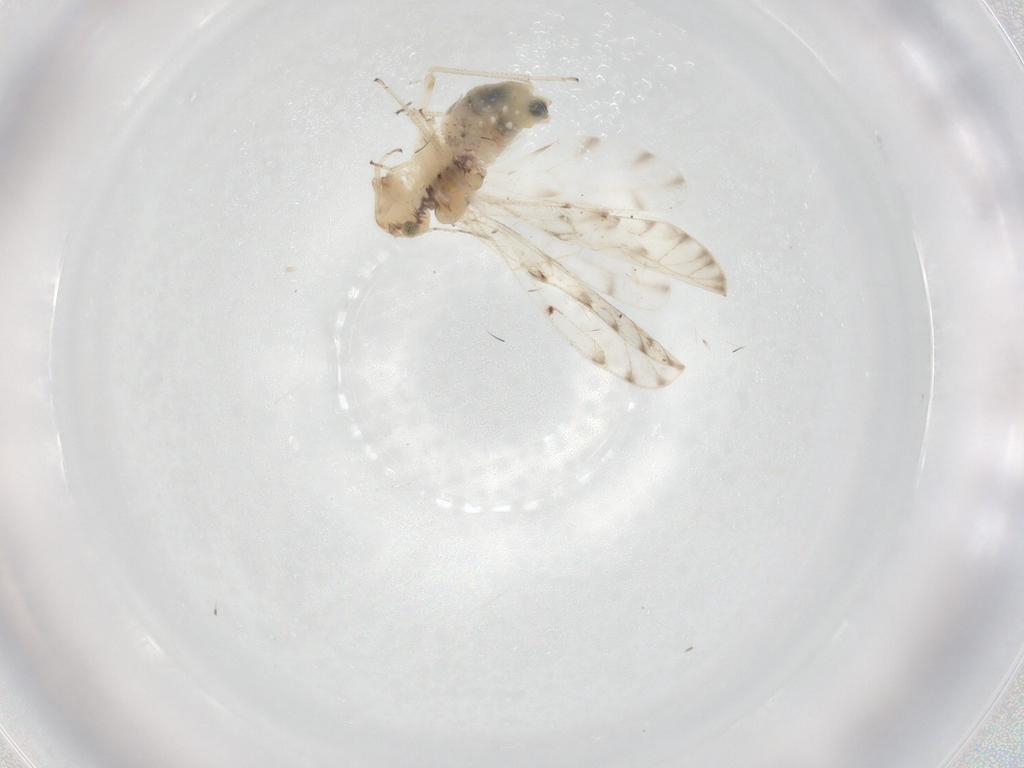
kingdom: Animalia
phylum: Arthropoda
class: Insecta
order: Psocodea
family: Ectopsocidae
